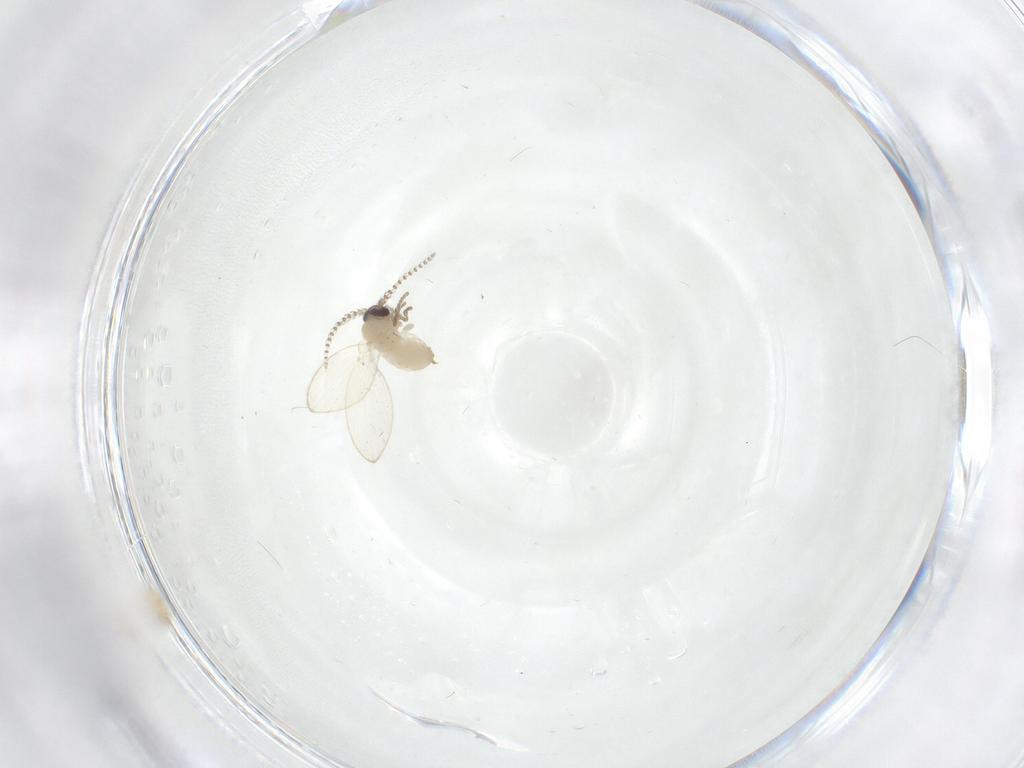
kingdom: Animalia
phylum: Arthropoda
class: Insecta
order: Diptera
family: Psychodidae
